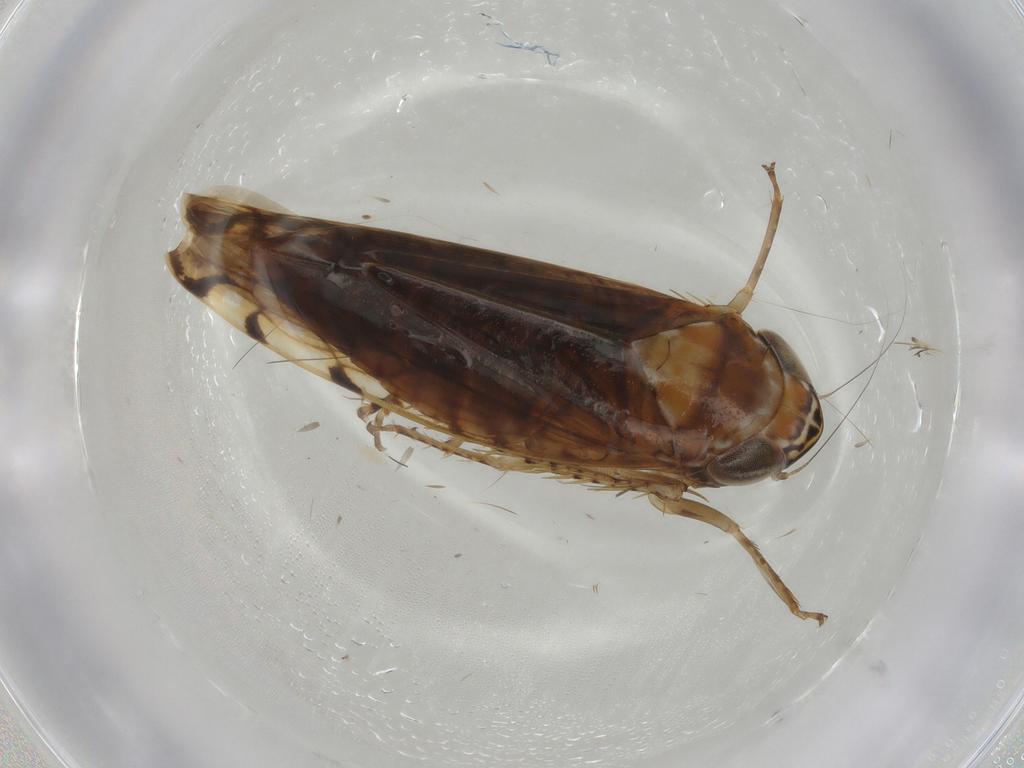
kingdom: Animalia
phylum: Arthropoda
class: Insecta
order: Hemiptera
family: Cicadellidae
